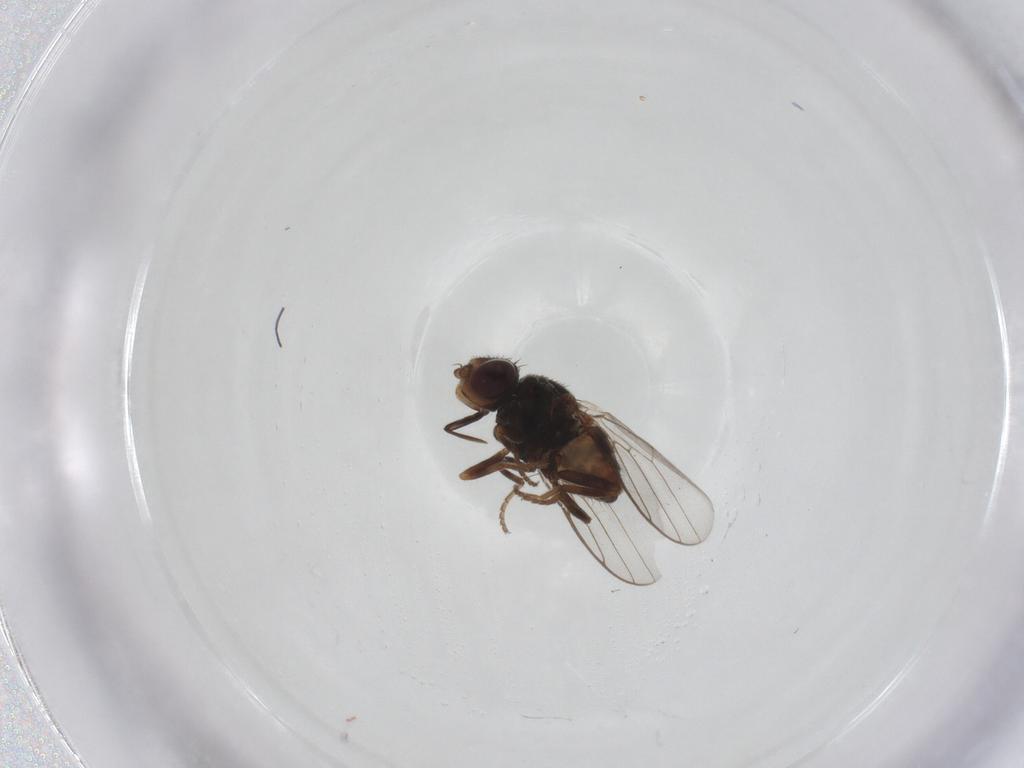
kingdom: Animalia
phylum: Arthropoda
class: Insecta
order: Diptera
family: Chloropidae
